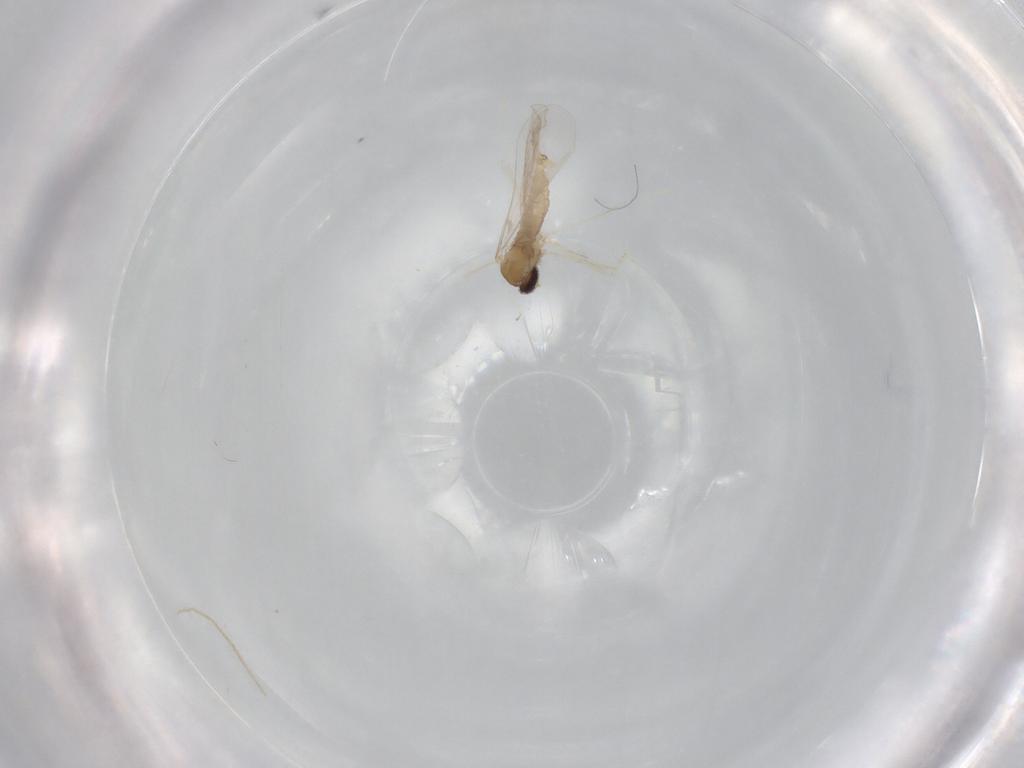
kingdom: Animalia
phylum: Arthropoda
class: Insecta
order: Diptera
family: Cecidomyiidae
